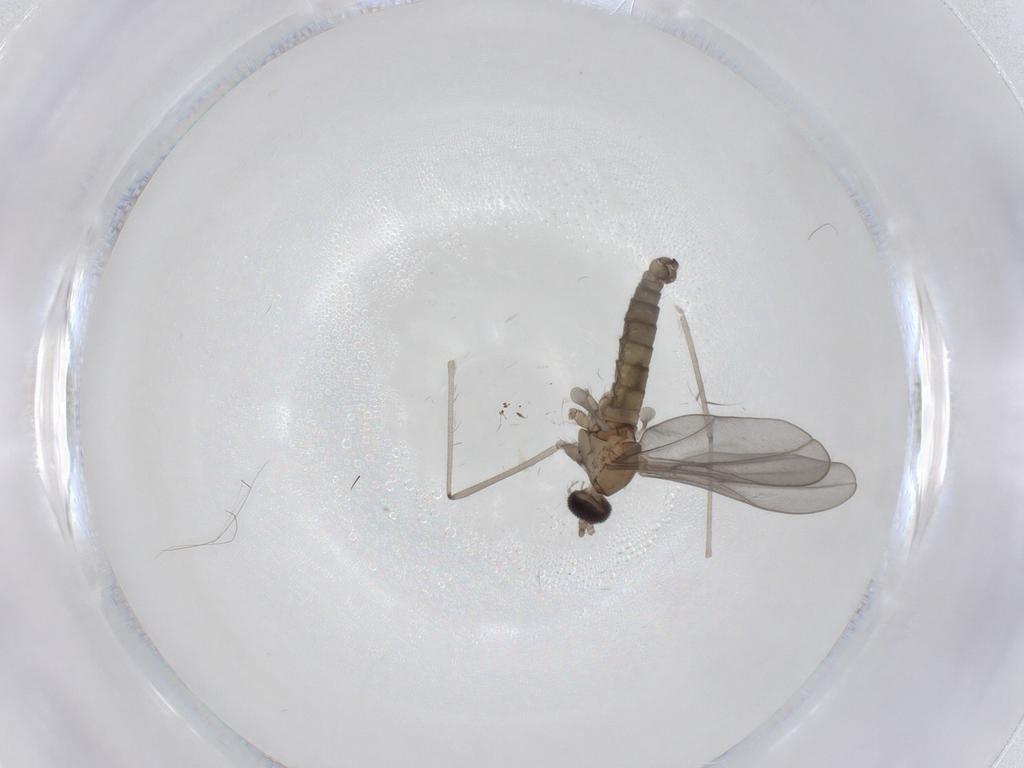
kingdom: Animalia
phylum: Arthropoda
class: Insecta
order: Diptera
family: Cecidomyiidae
